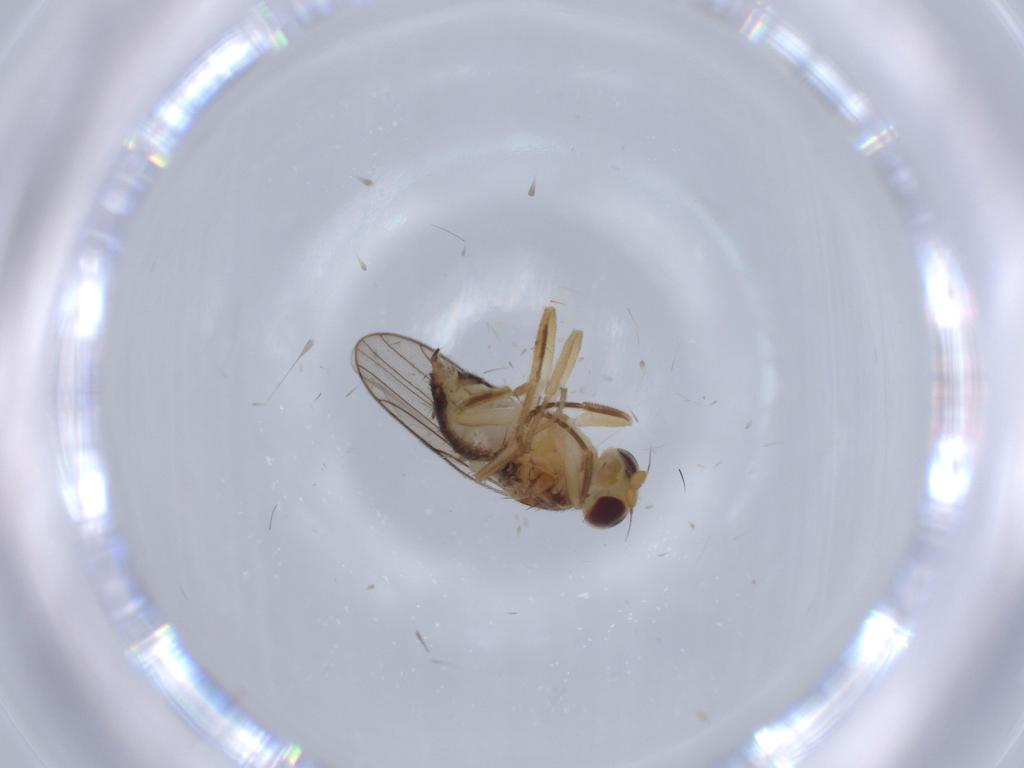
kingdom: Animalia
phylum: Arthropoda
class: Insecta
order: Diptera
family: Chloropidae
